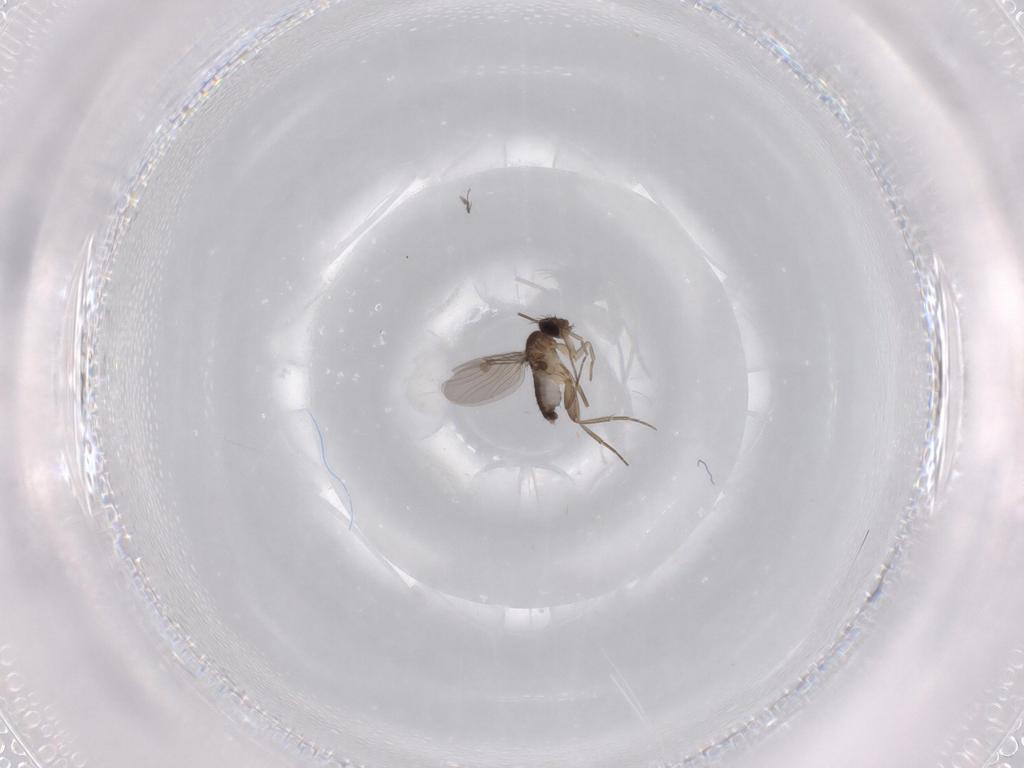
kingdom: Animalia
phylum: Arthropoda
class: Insecta
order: Diptera
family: Phoridae
